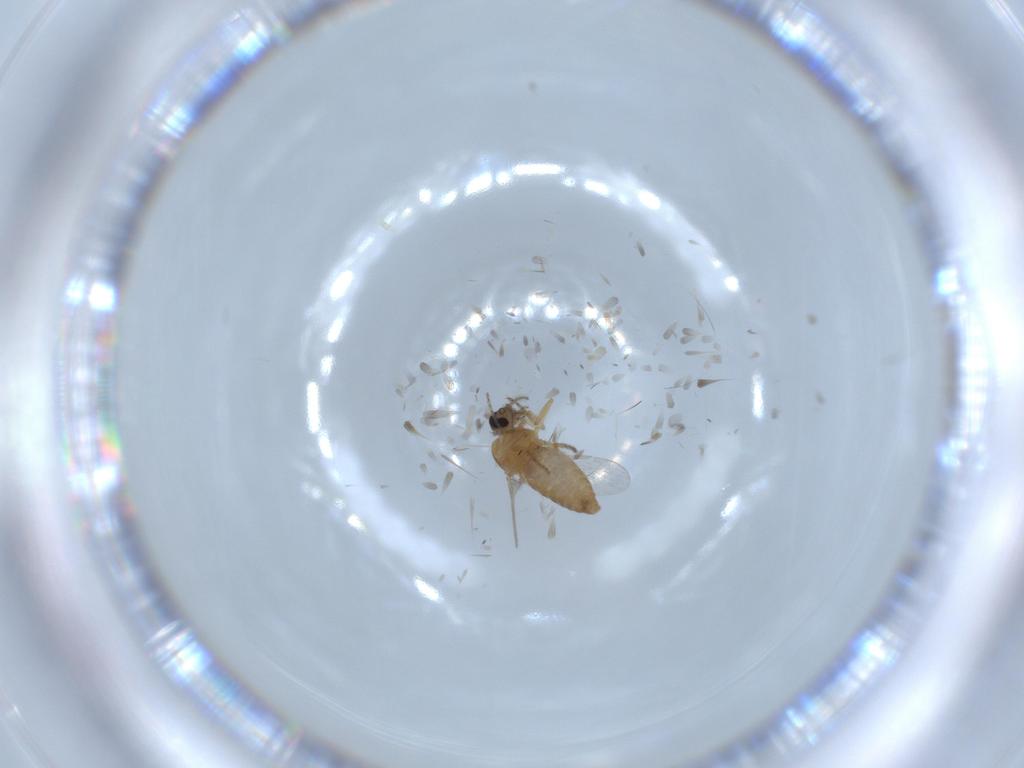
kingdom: Animalia
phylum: Arthropoda
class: Insecta
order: Diptera
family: Ceratopogonidae
